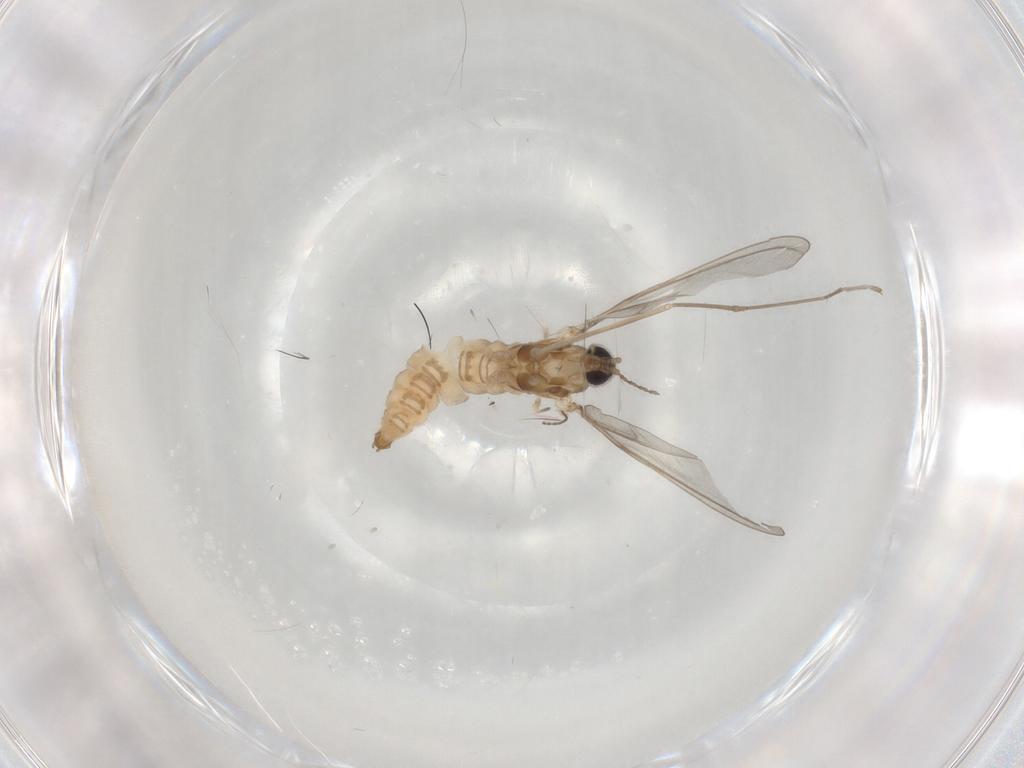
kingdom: Animalia
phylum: Arthropoda
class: Insecta
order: Diptera
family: Cecidomyiidae
